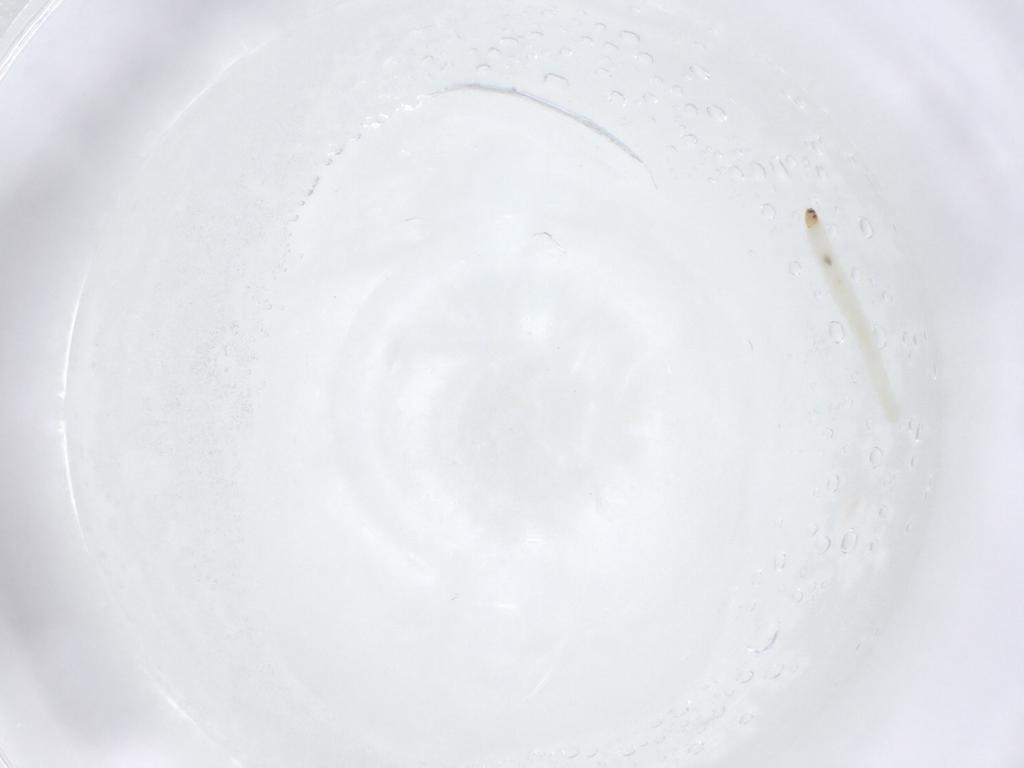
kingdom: Animalia
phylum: Arthropoda
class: Insecta
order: Diptera
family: Chironomidae
